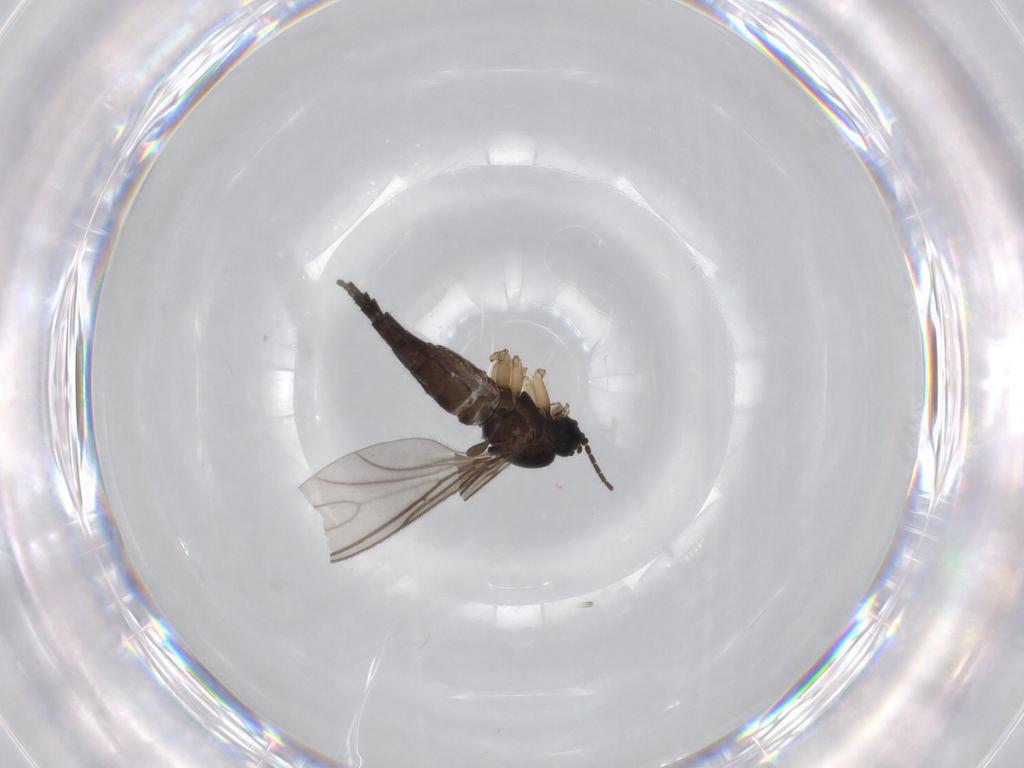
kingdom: Animalia
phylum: Arthropoda
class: Insecta
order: Diptera
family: Sciaridae
